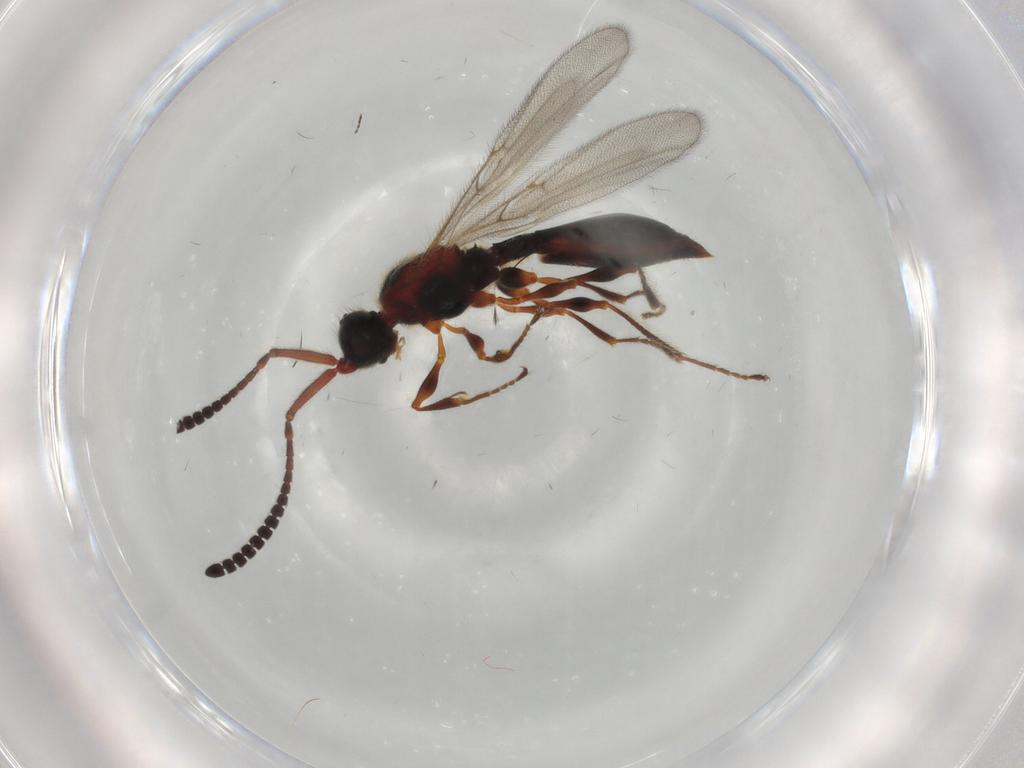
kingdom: Animalia
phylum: Arthropoda
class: Insecta
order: Hymenoptera
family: Diapriidae
